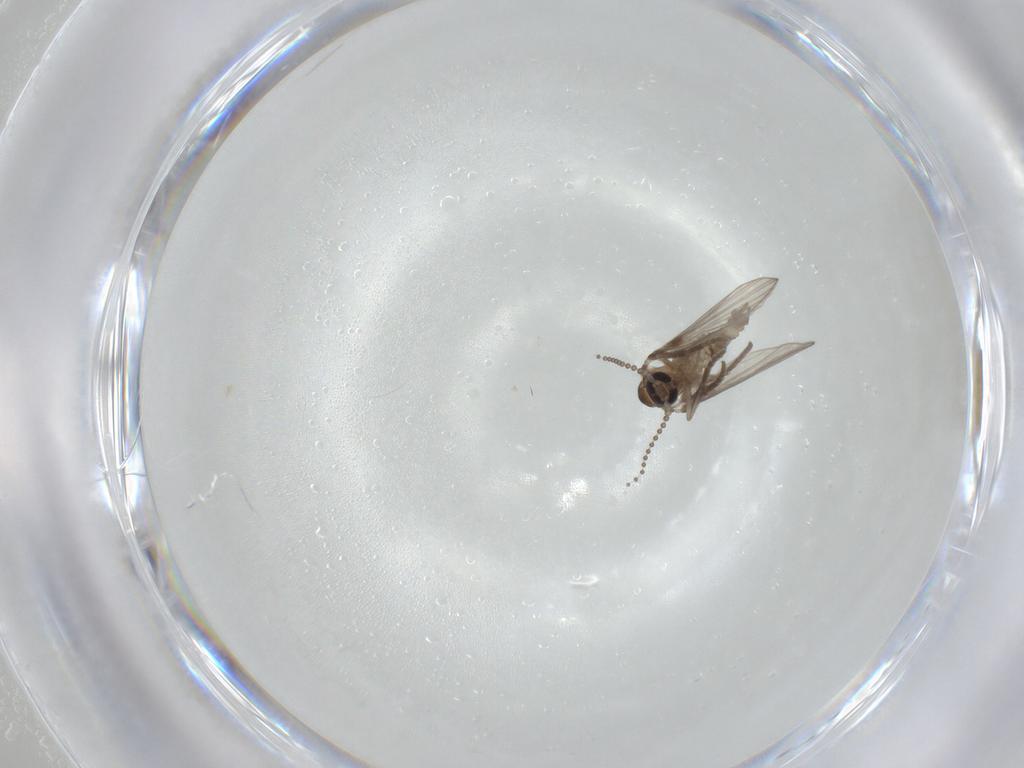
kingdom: Animalia
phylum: Arthropoda
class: Insecta
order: Diptera
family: Psychodidae
